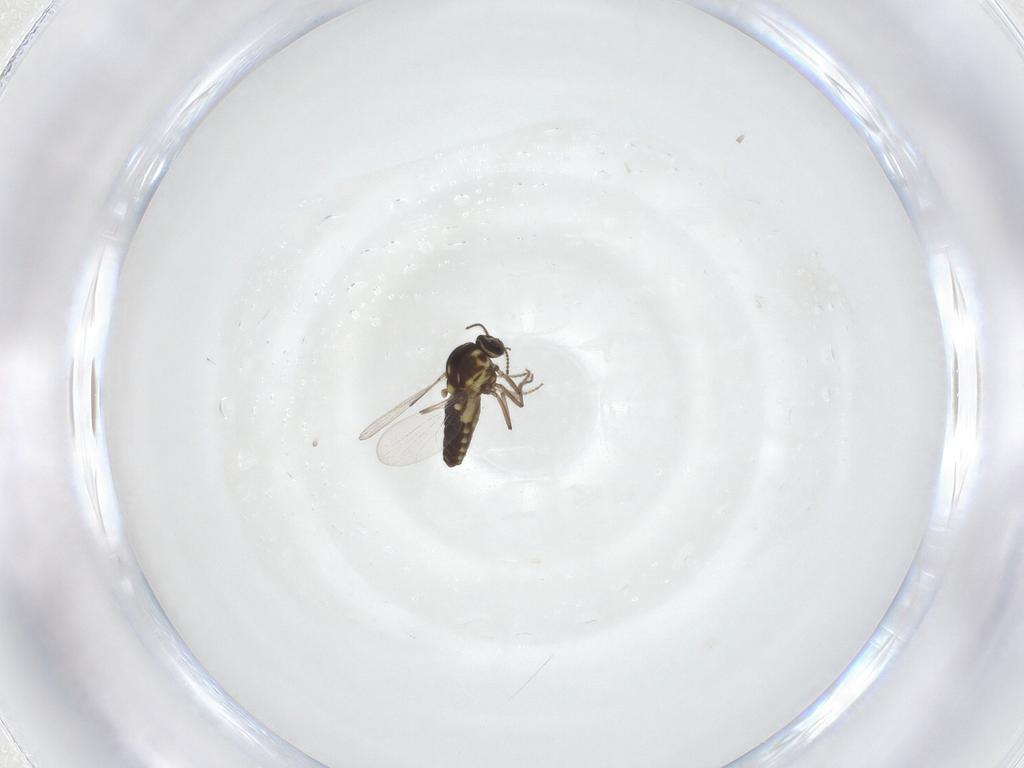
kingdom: Animalia
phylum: Arthropoda
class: Insecta
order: Diptera
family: Ceratopogonidae
